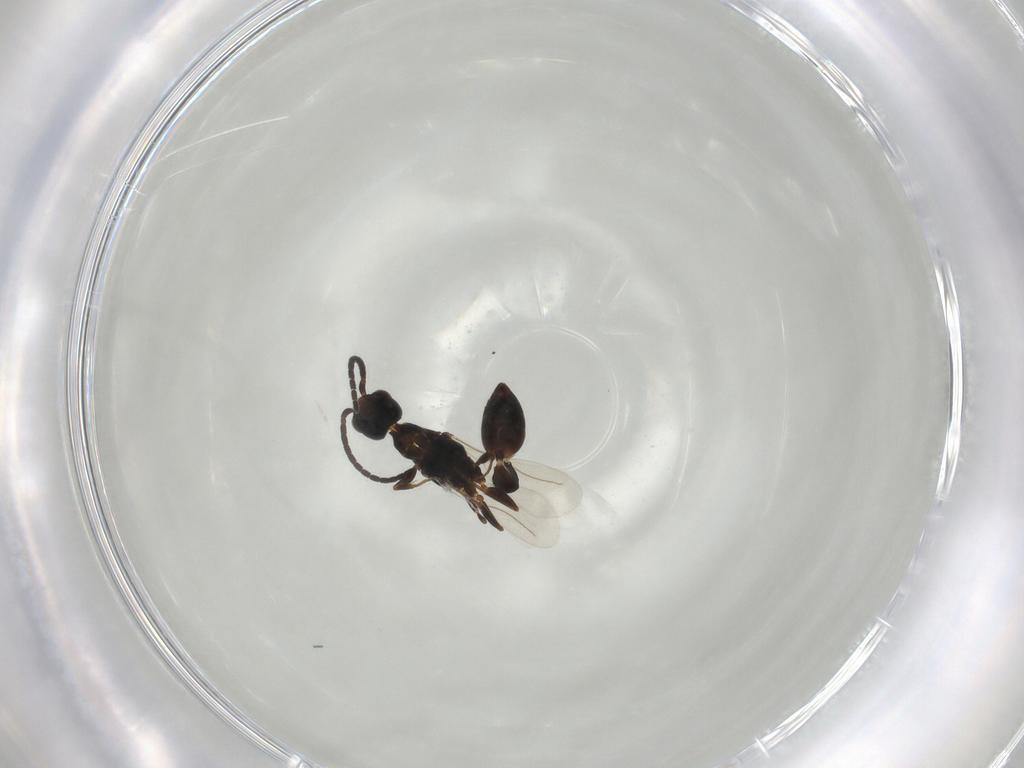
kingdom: Animalia
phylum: Arthropoda
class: Insecta
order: Hymenoptera
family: Bethylidae
